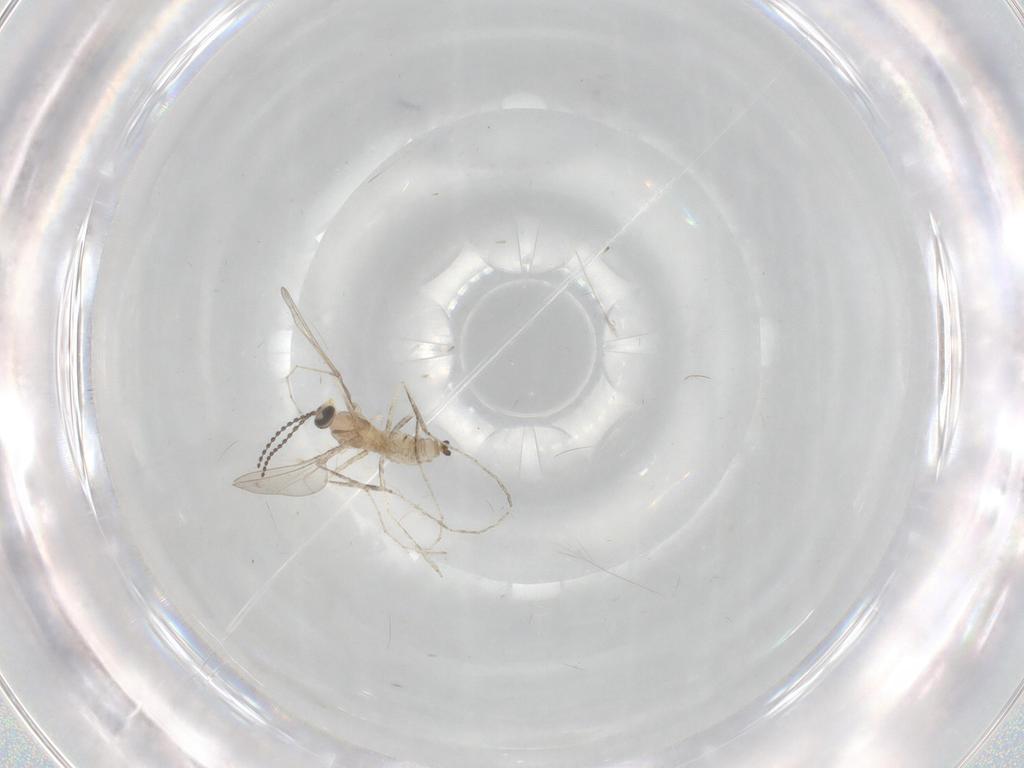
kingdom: Animalia
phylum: Arthropoda
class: Insecta
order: Diptera
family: Cecidomyiidae
